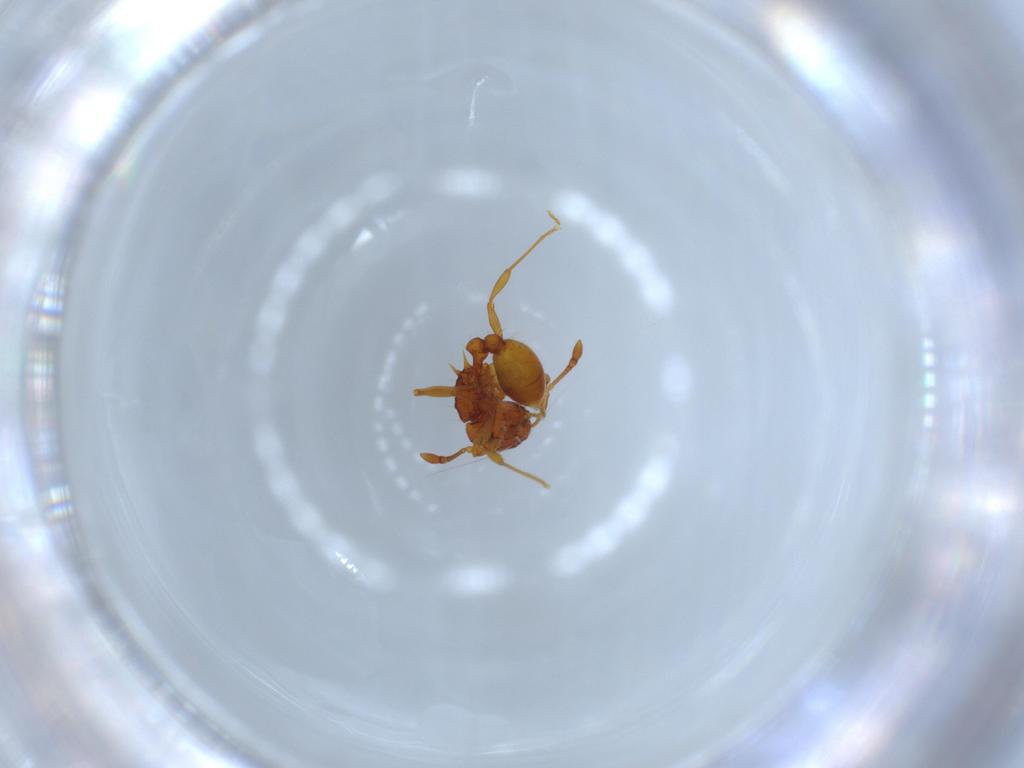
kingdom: Animalia
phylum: Arthropoda
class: Insecta
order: Hymenoptera
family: Formicidae
